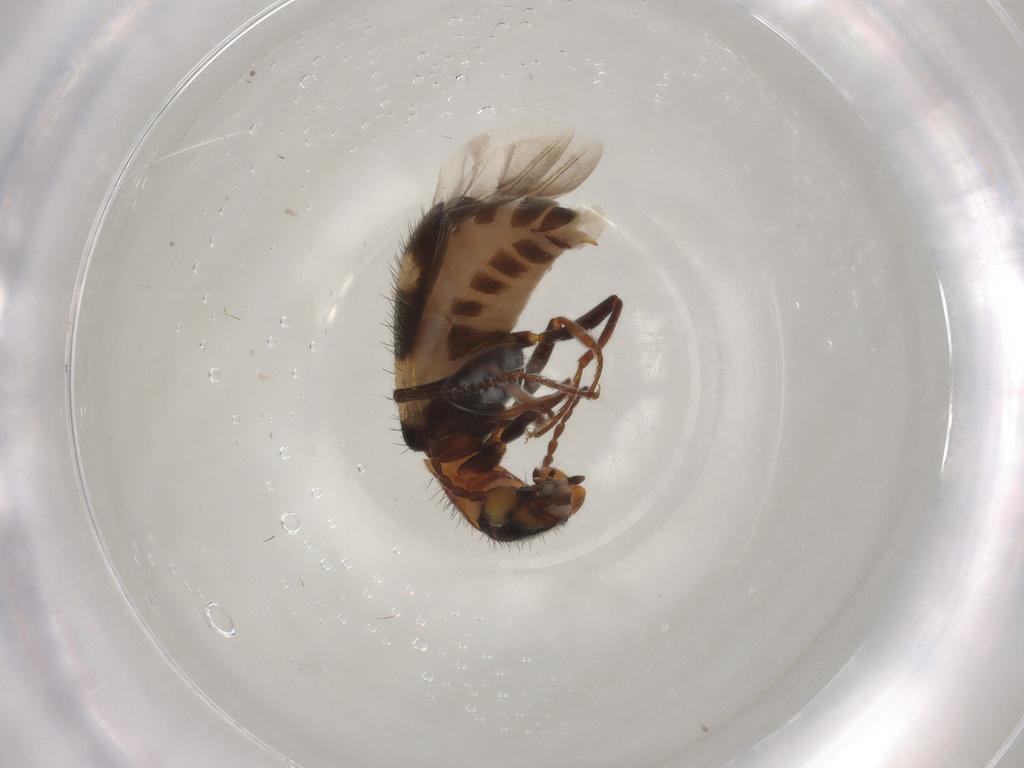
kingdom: Animalia
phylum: Arthropoda
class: Insecta
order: Coleoptera
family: Melyridae
